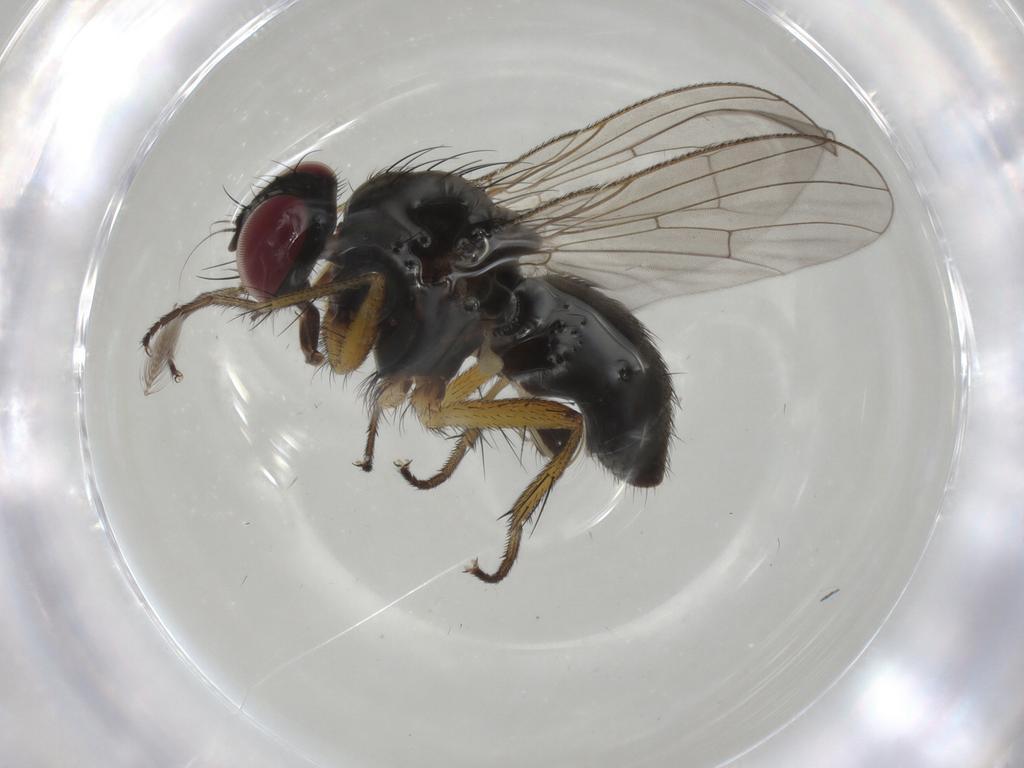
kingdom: Animalia
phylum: Arthropoda
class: Insecta
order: Diptera
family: Muscidae
